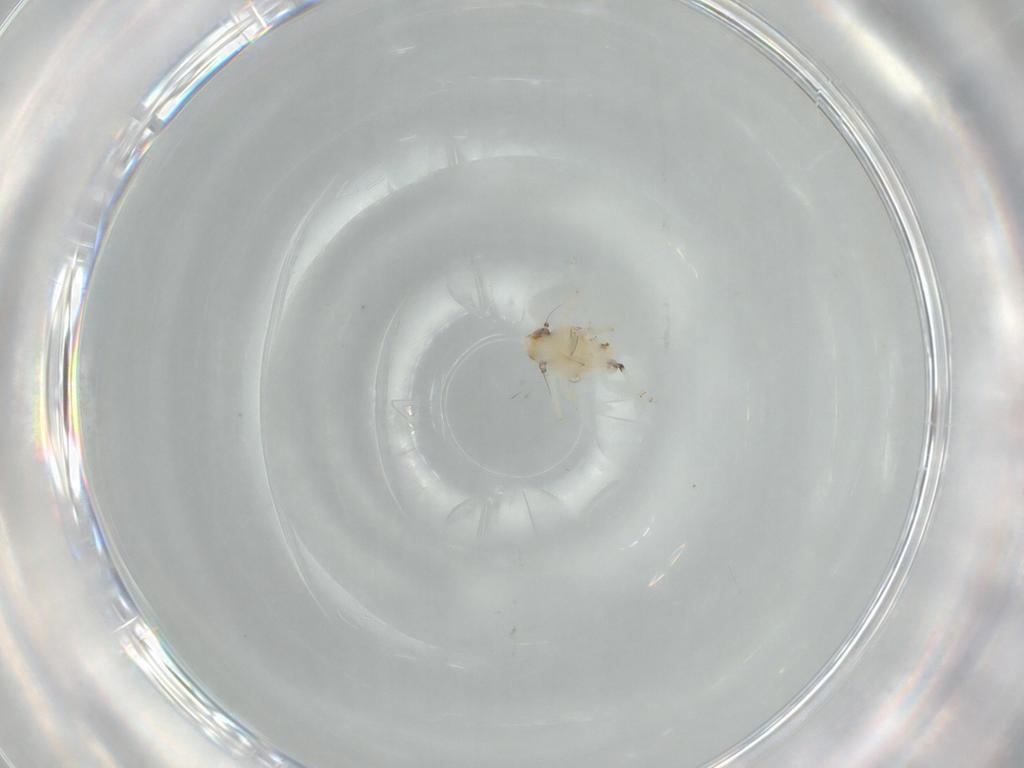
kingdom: Animalia
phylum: Arthropoda
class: Insecta
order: Hemiptera
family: Nogodinidae
